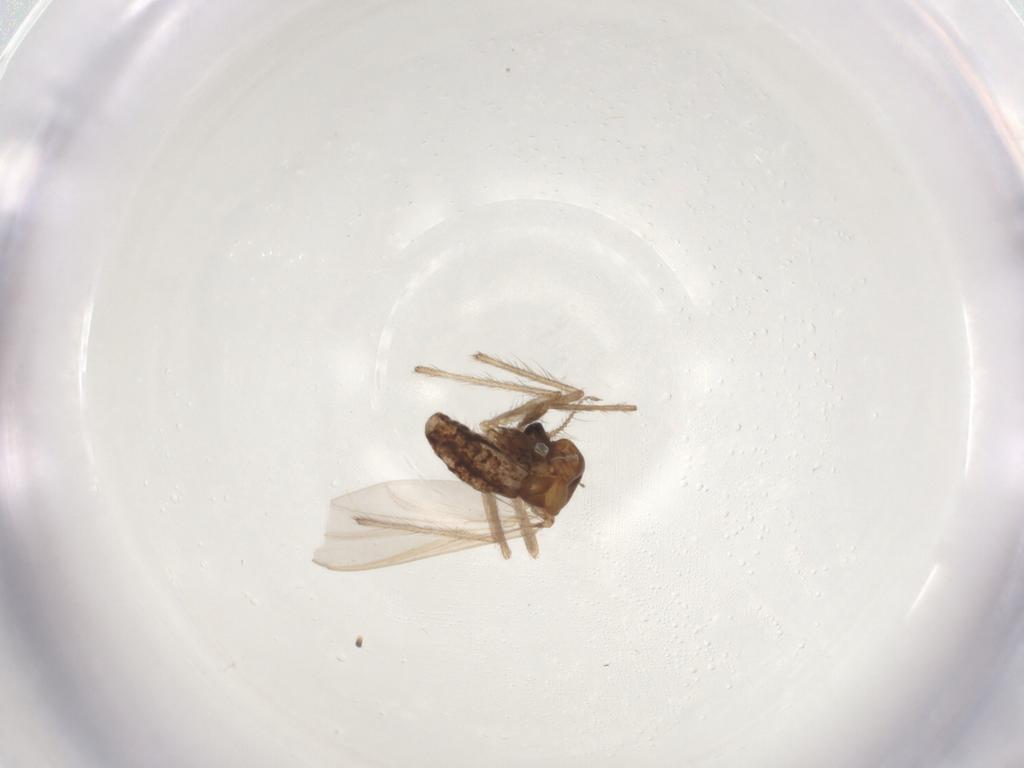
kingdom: Animalia
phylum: Arthropoda
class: Insecta
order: Diptera
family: Chironomidae
